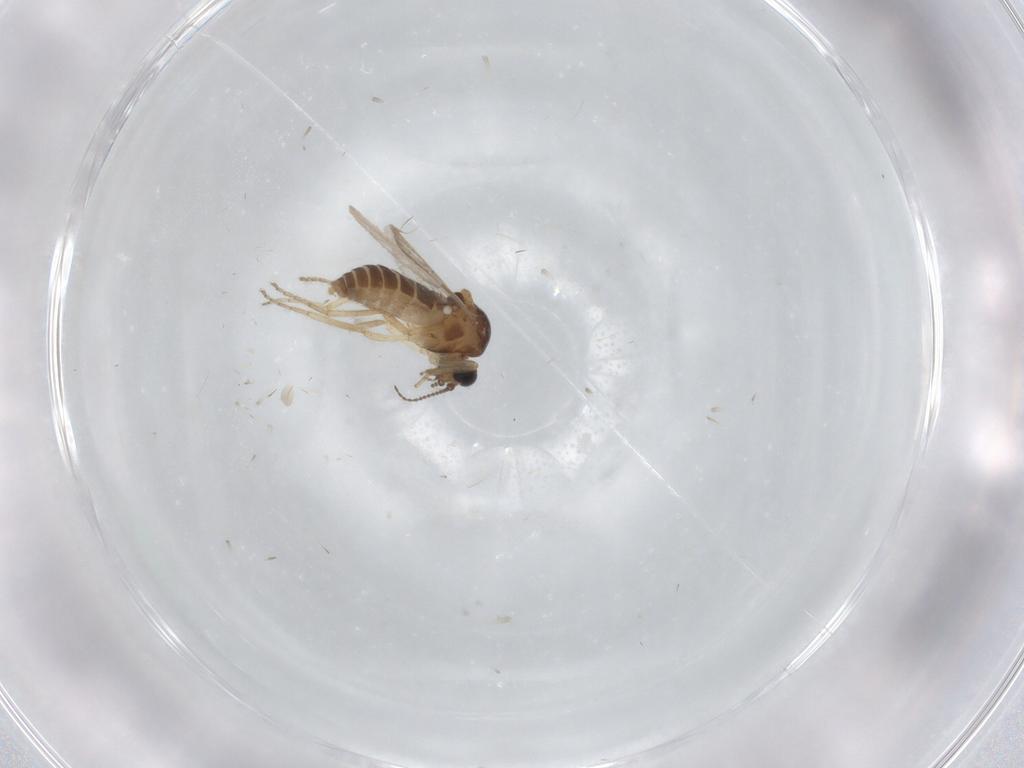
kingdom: Animalia
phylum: Arthropoda
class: Insecta
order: Diptera
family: Ceratopogonidae
